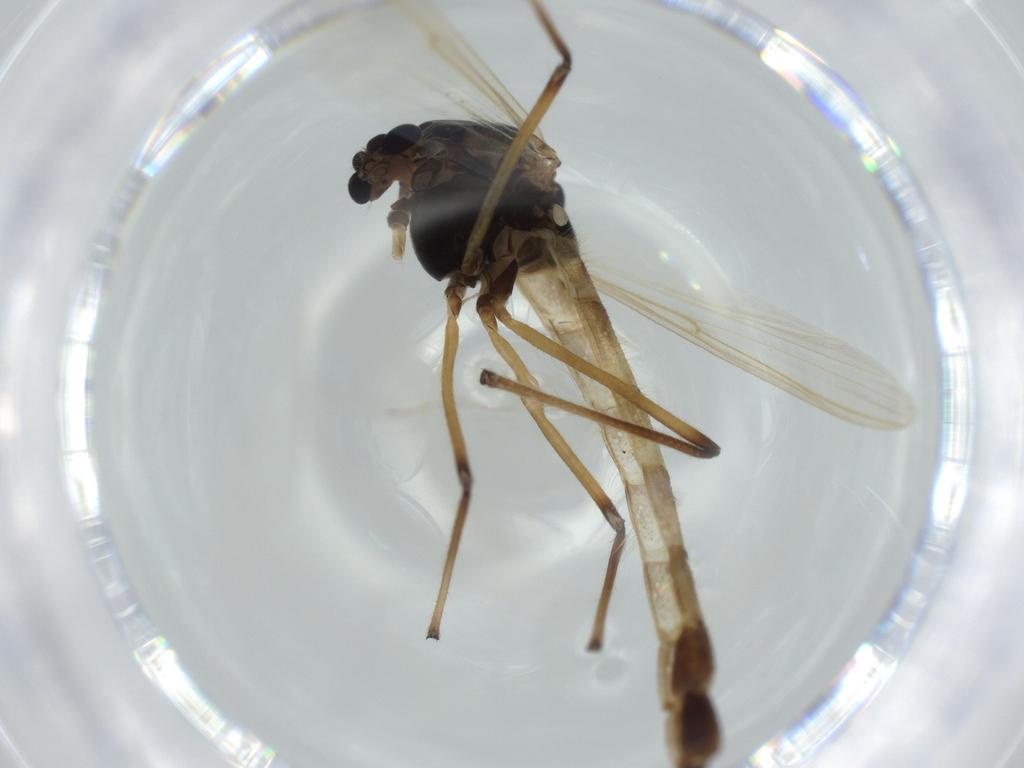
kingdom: Animalia
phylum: Arthropoda
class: Insecta
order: Diptera
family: Chironomidae
